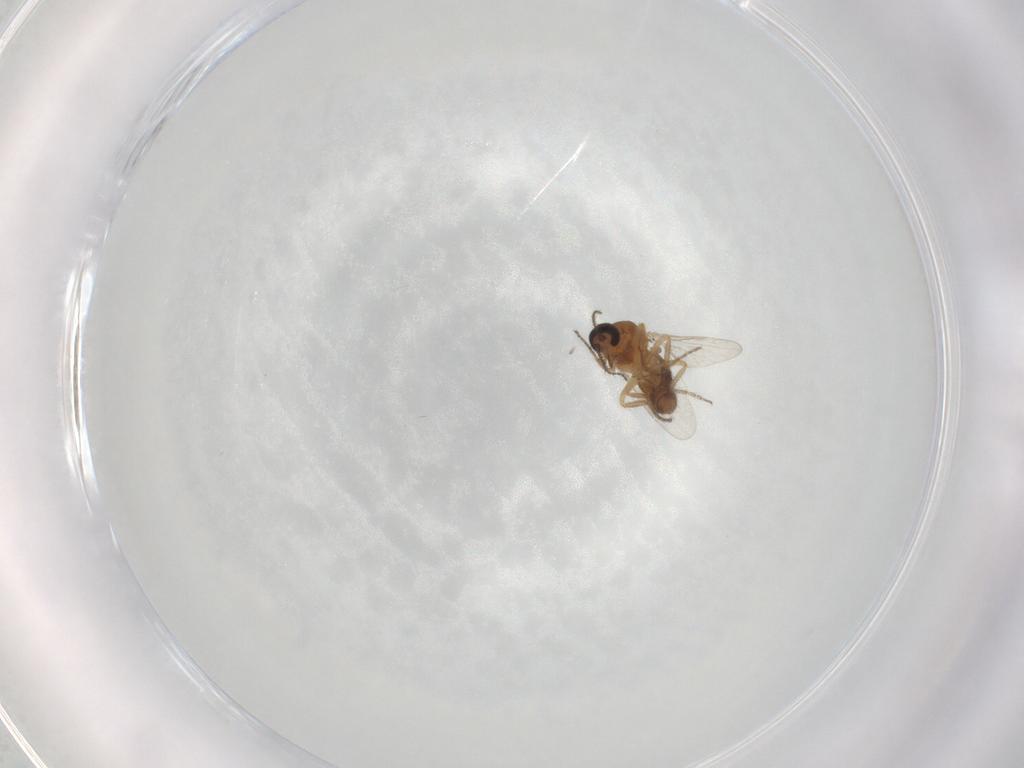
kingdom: Animalia
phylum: Arthropoda
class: Insecta
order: Diptera
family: Ceratopogonidae
